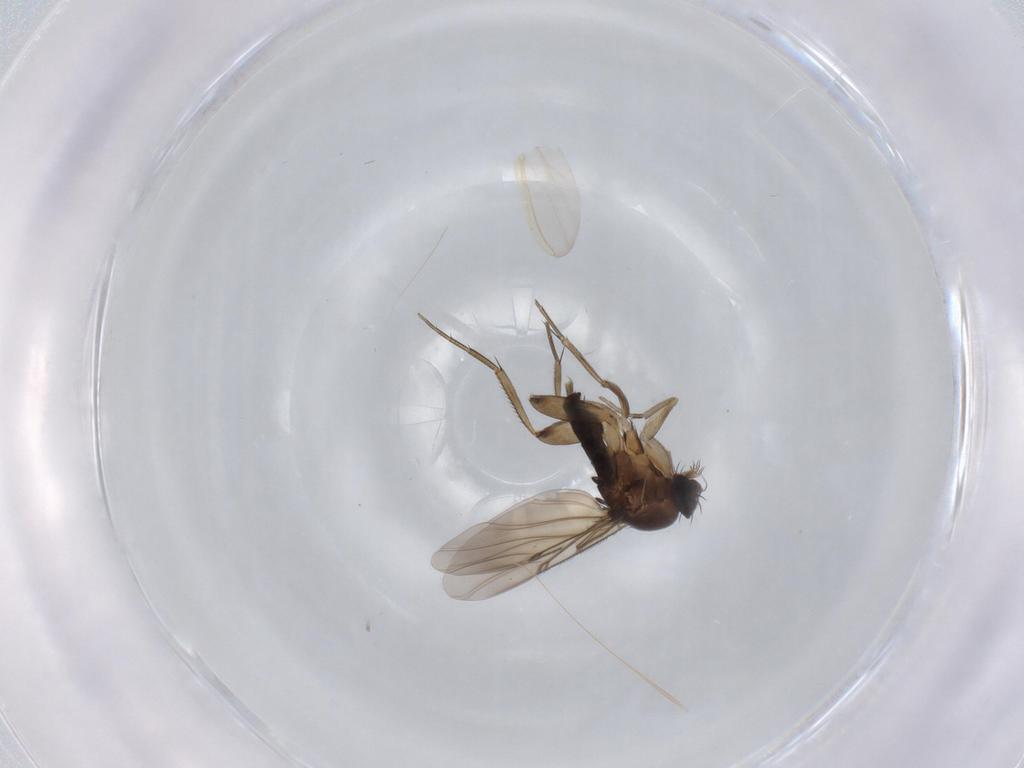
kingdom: Animalia
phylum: Arthropoda
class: Insecta
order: Diptera
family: Phoridae
